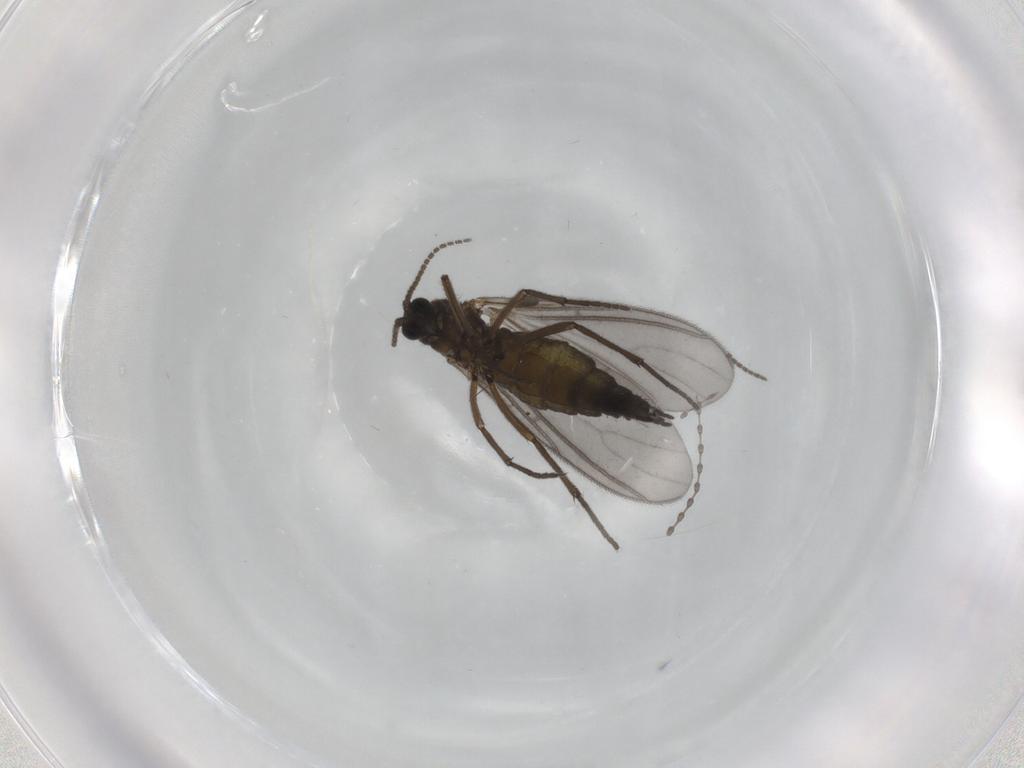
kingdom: Animalia
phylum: Arthropoda
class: Insecta
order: Diptera
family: Sciaridae
